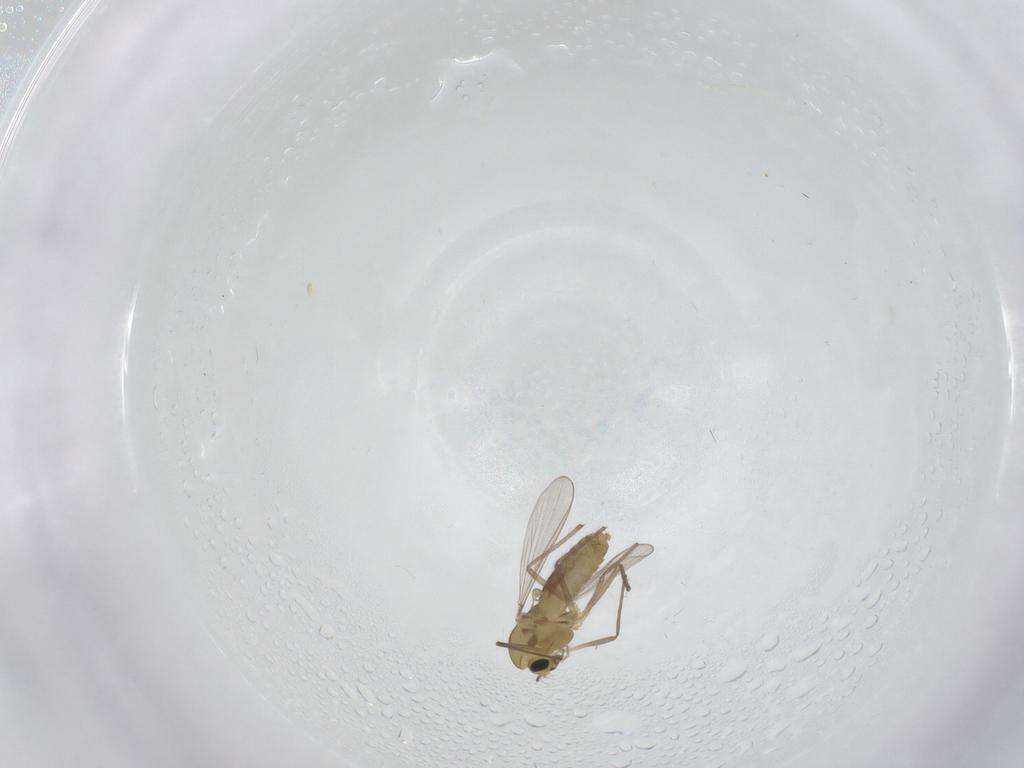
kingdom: Animalia
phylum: Arthropoda
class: Insecta
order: Diptera
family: Chironomidae
